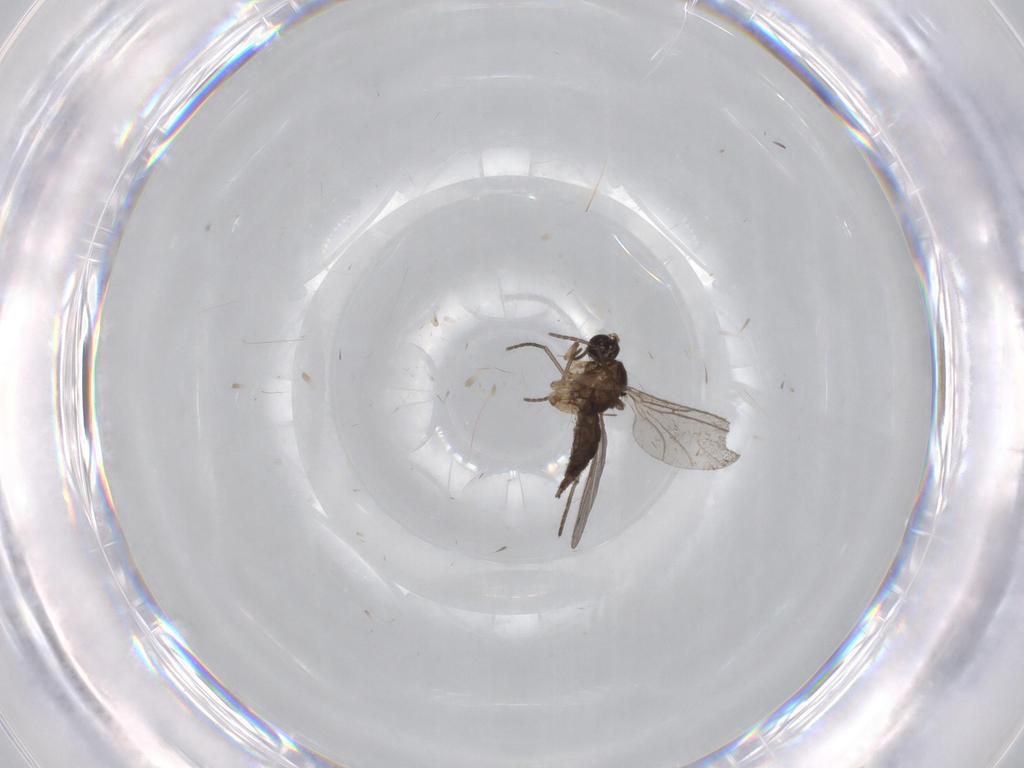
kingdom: Animalia
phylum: Arthropoda
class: Insecta
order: Diptera
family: Sciaridae
